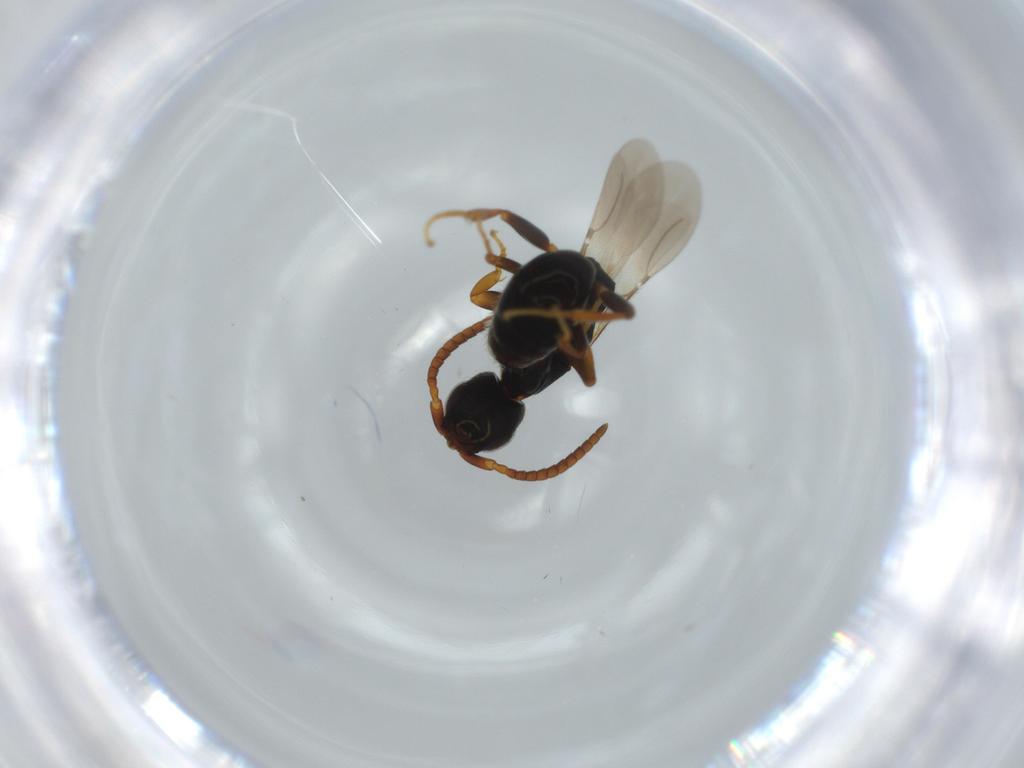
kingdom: Animalia
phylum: Arthropoda
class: Insecta
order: Hymenoptera
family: Bethylidae
